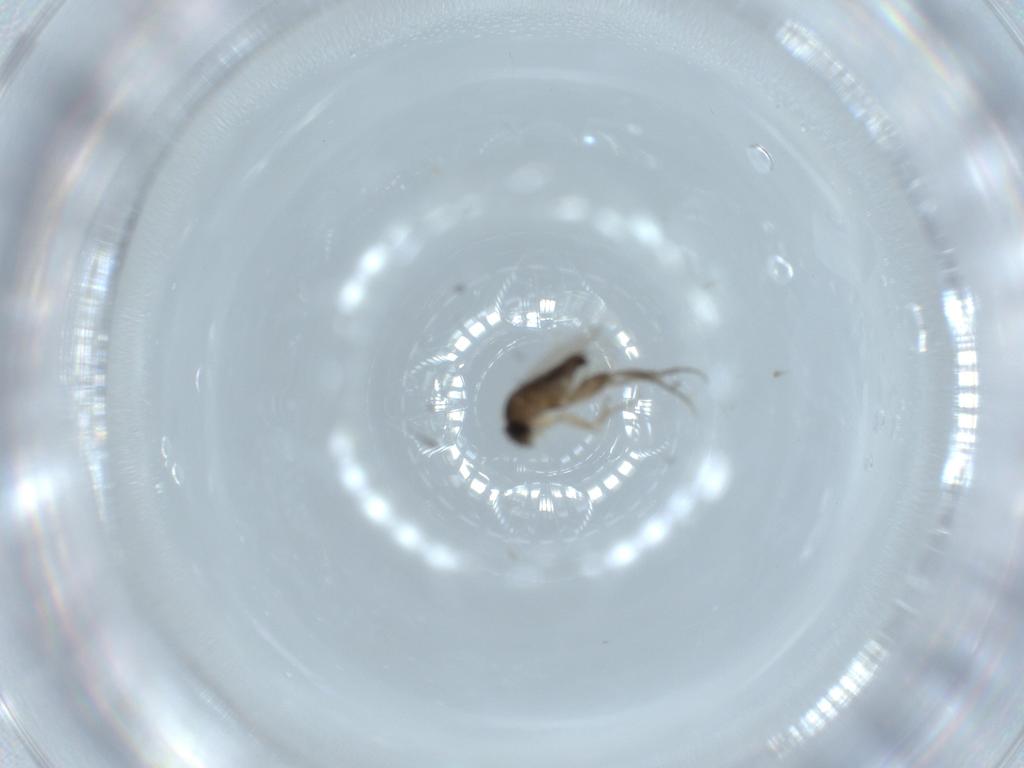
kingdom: Animalia
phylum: Arthropoda
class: Insecta
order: Diptera
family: Phoridae
